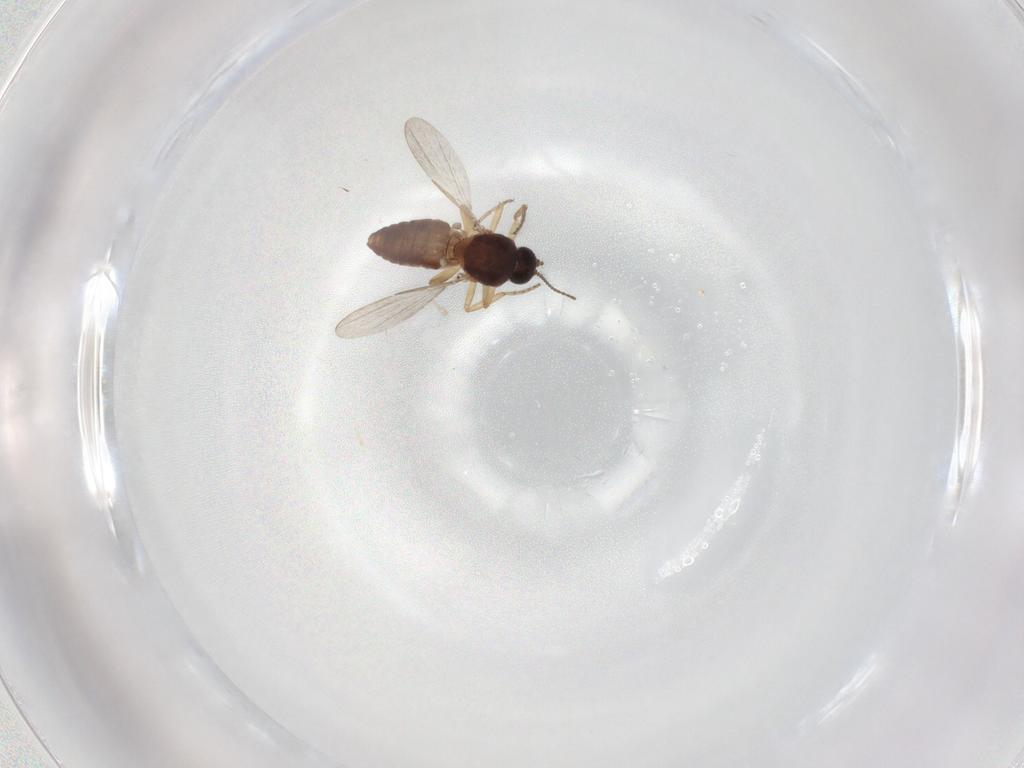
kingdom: Animalia
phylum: Arthropoda
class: Insecta
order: Diptera
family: Ceratopogonidae
